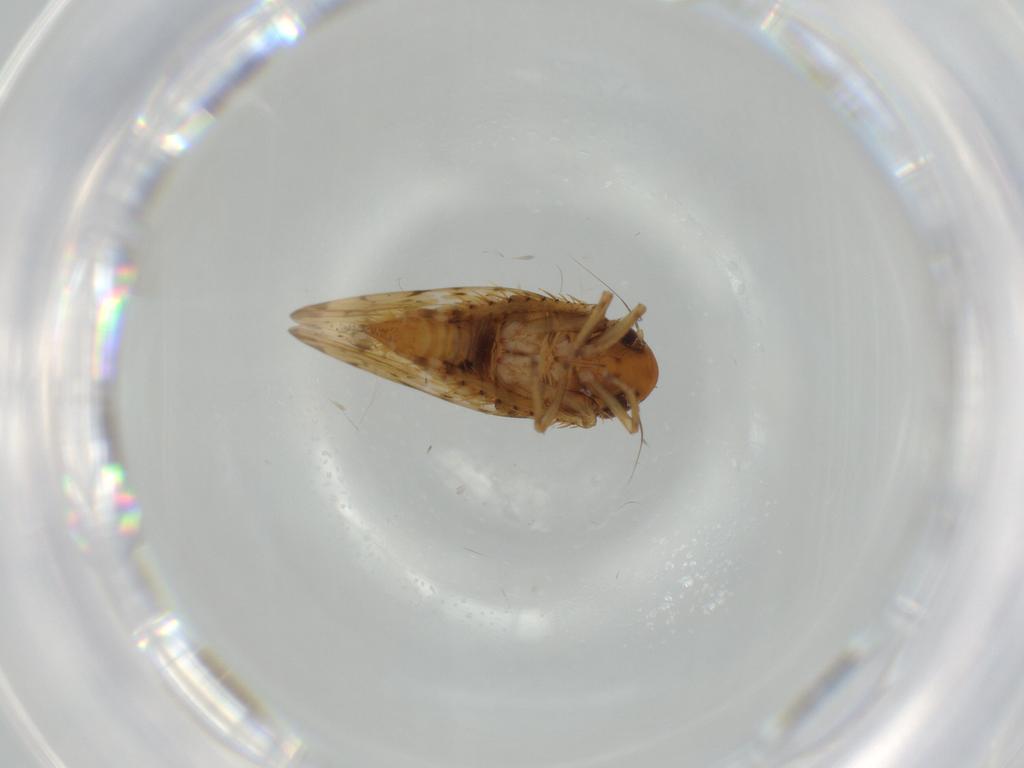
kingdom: Animalia
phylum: Arthropoda
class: Insecta
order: Hemiptera
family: Cicadellidae
